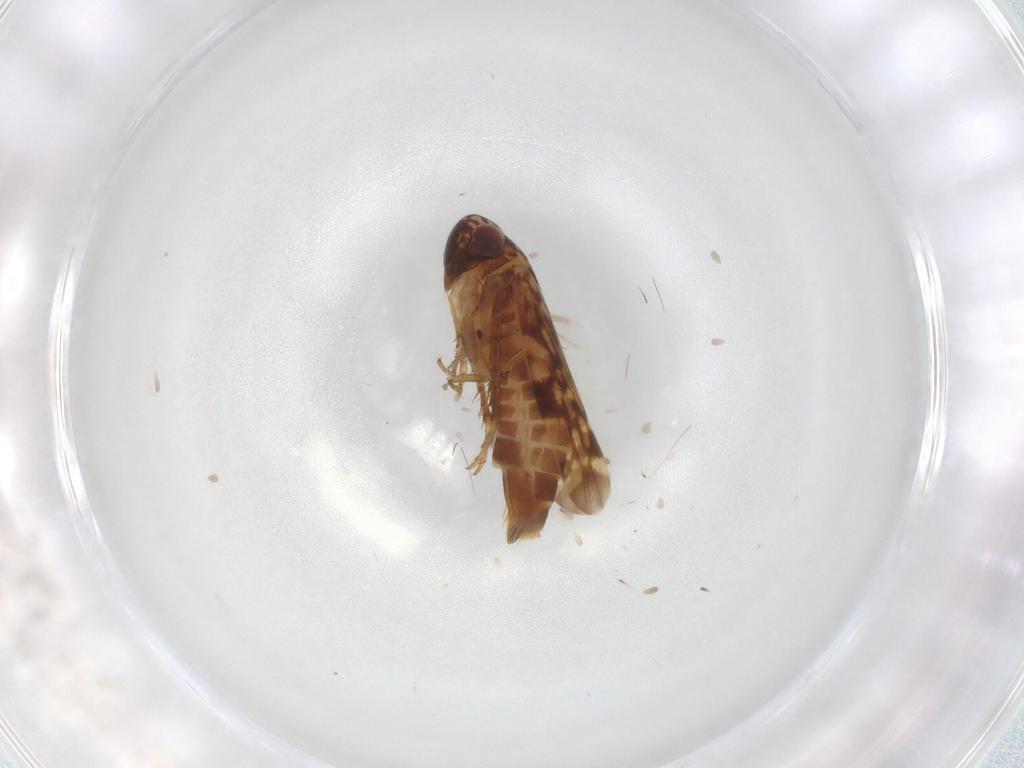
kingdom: Animalia
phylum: Arthropoda
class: Insecta
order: Hemiptera
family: Cicadellidae
